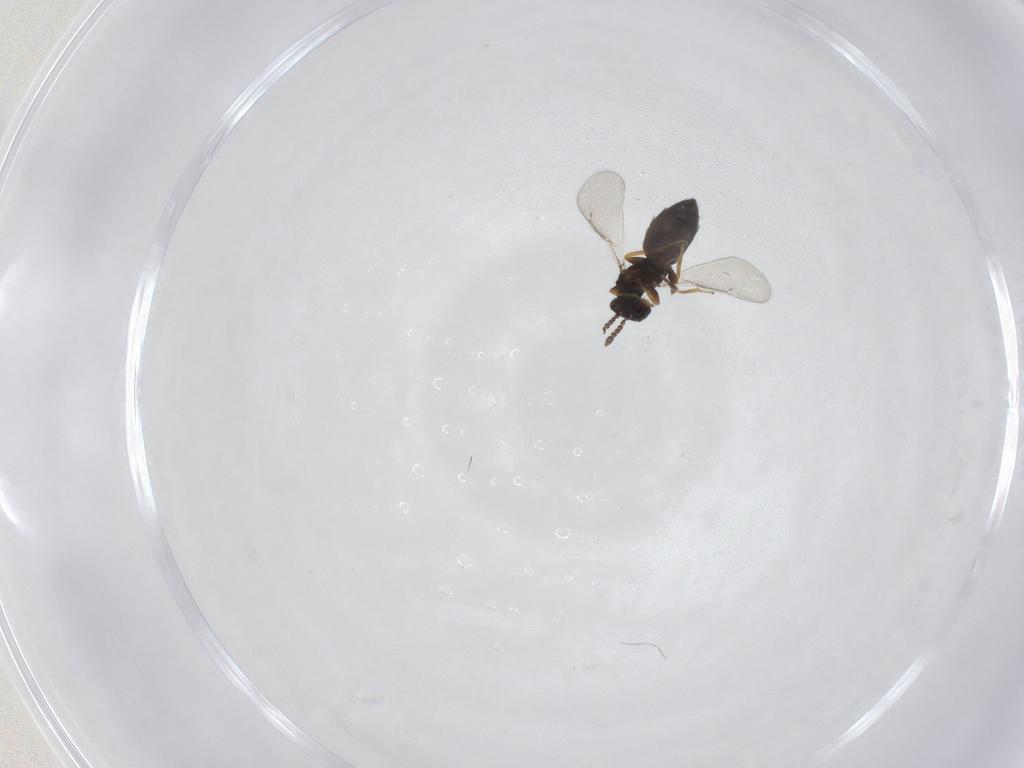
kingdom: Animalia
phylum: Arthropoda
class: Insecta
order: Hymenoptera
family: Eulophidae
